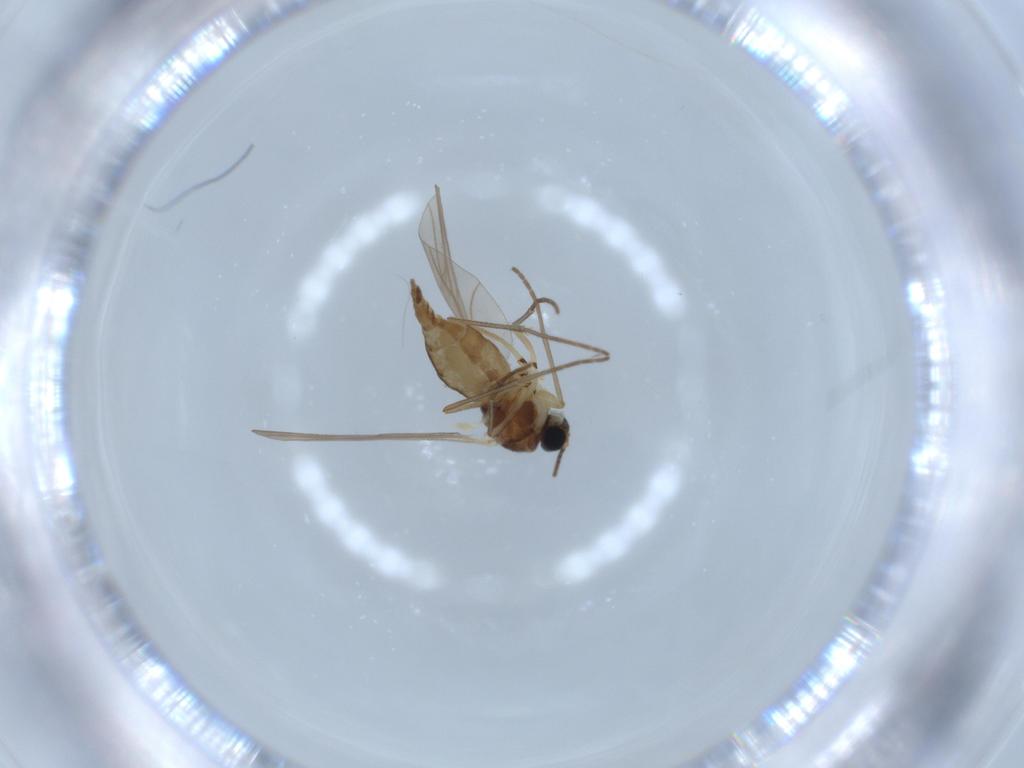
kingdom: Animalia
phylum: Arthropoda
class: Insecta
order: Diptera
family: Sciaridae
